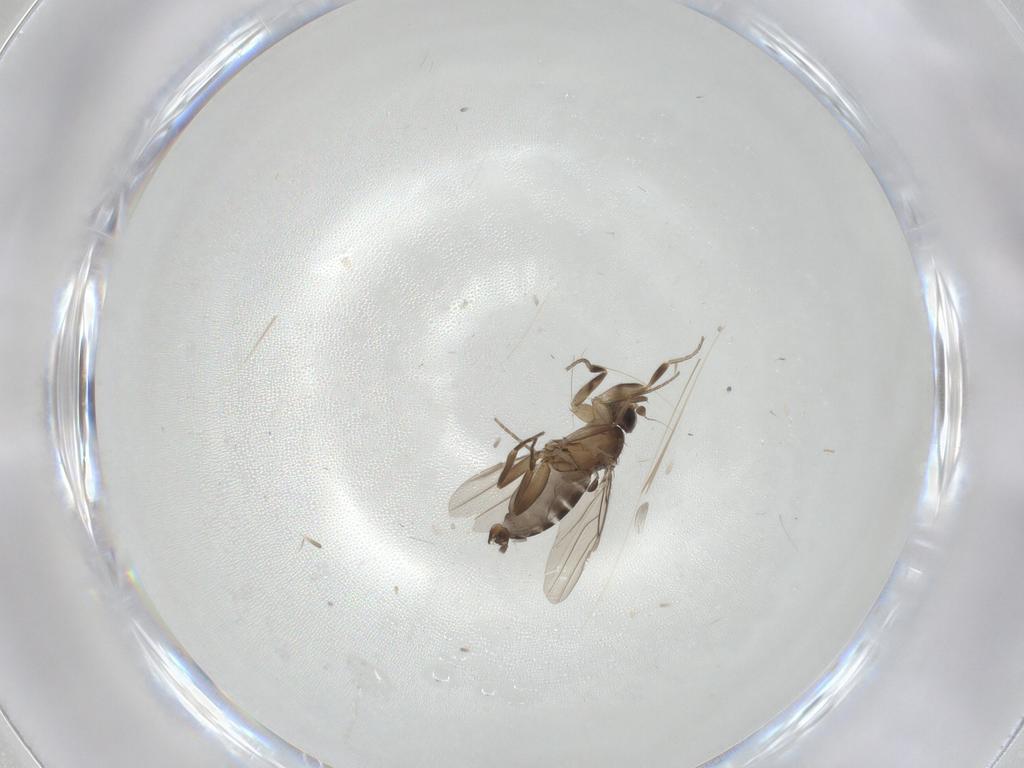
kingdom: Animalia
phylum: Arthropoda
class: Insecta
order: Diptera
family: Phoridae
